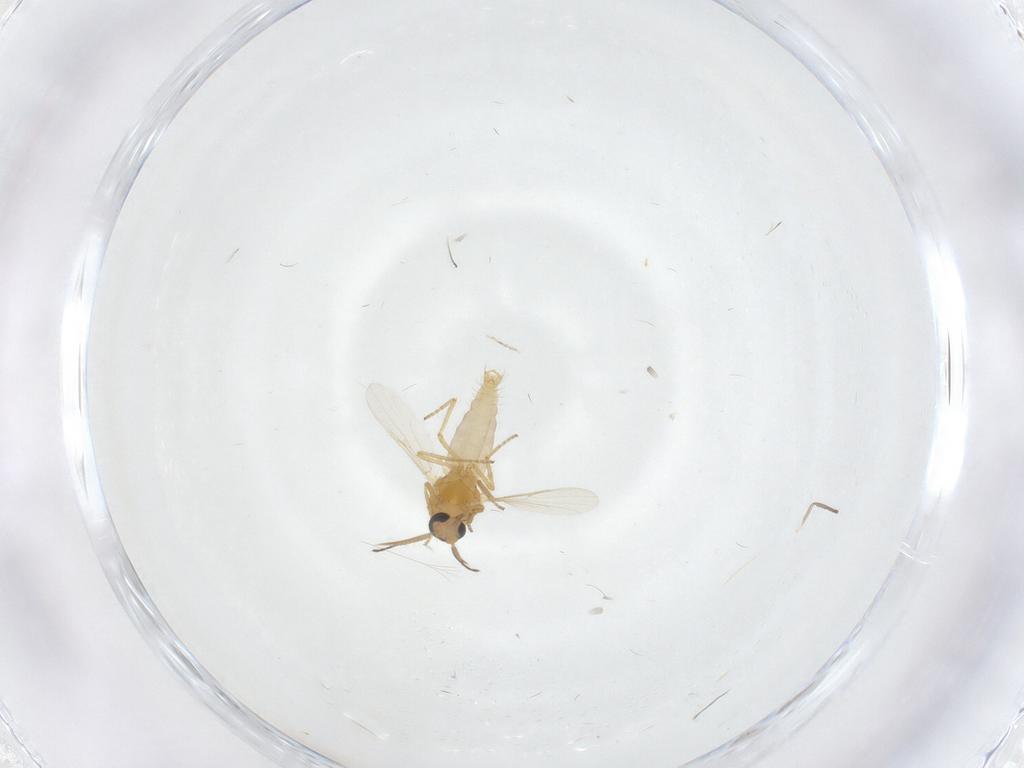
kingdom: Animalia
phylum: Arthropoda
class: Insecta
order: Diptera
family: Ceratopogonidae
